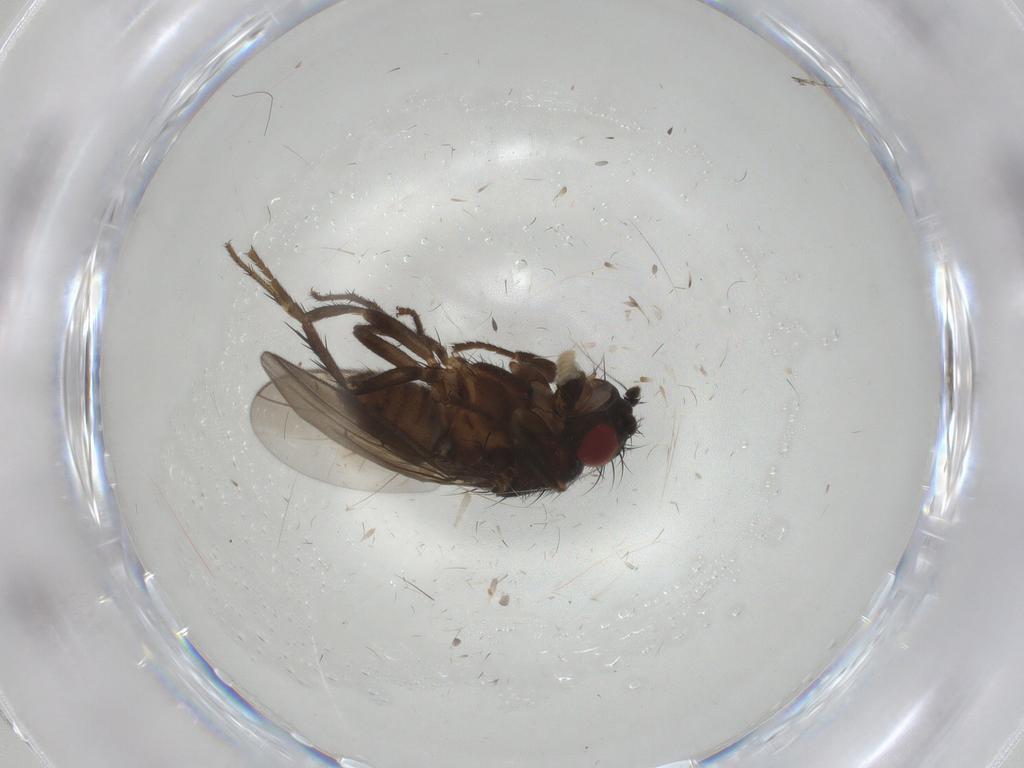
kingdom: Animalia
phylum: Arthropoda
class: Insecta
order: Diptera
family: Sphaeroceridae
